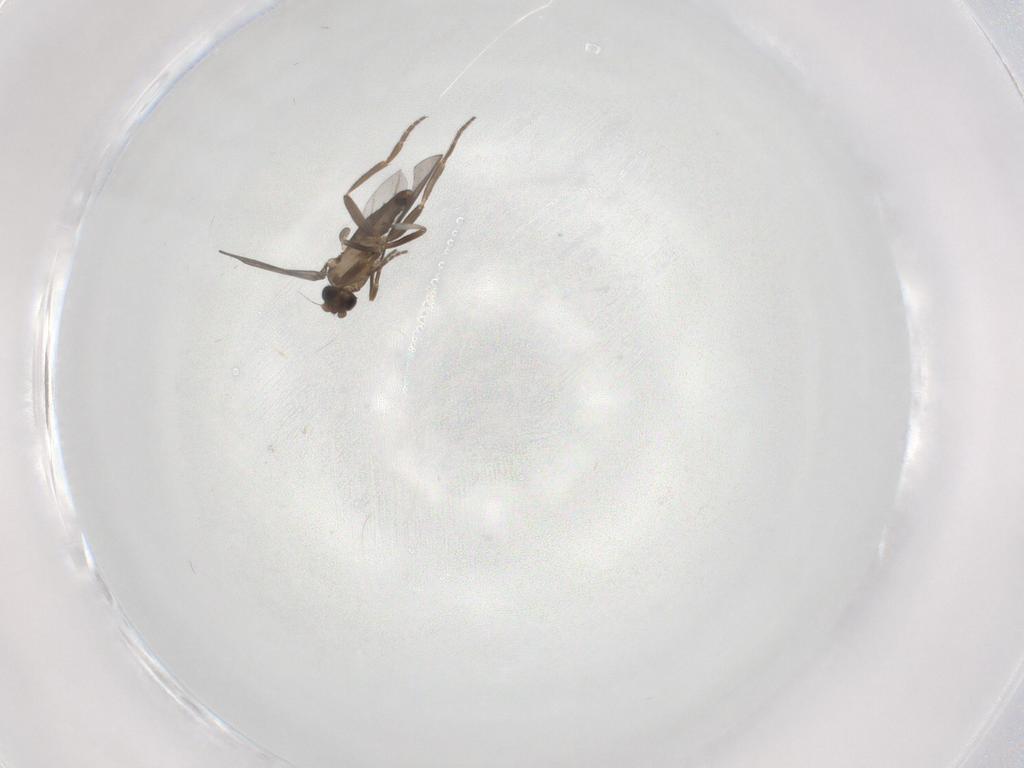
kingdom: Animalia
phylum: Arthropoda
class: Insecta
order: Diptera
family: Phoridae
